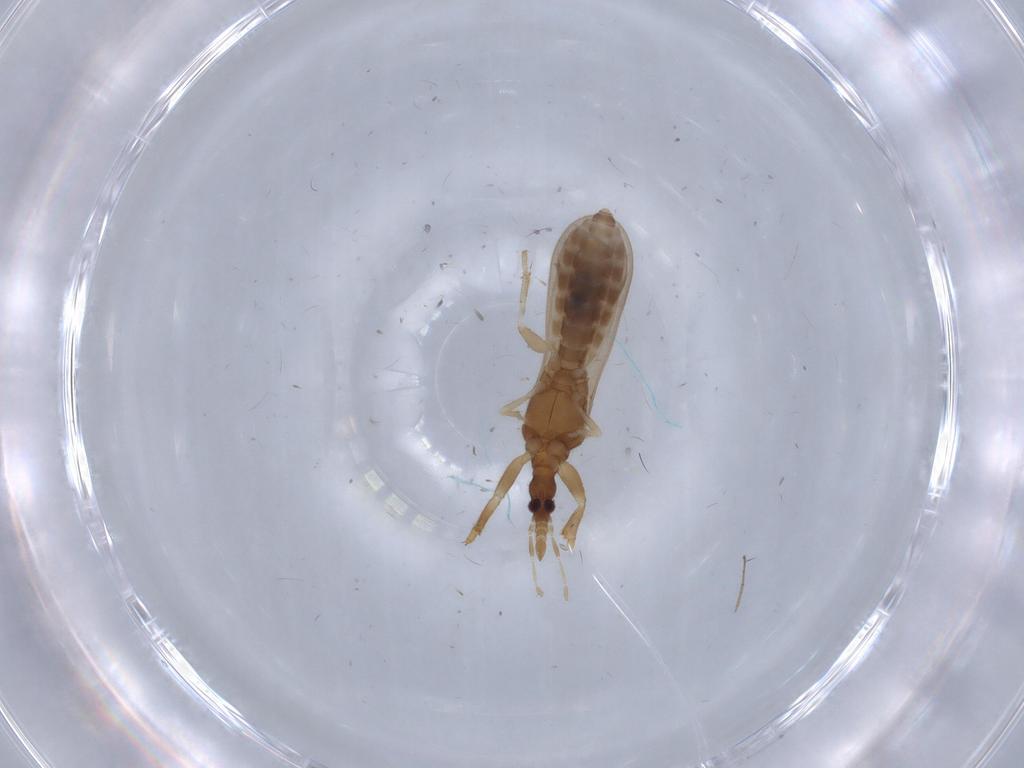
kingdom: Animalia
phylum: Arthropoda
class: Insecta
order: Hemiptera
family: Enicocephalidae
